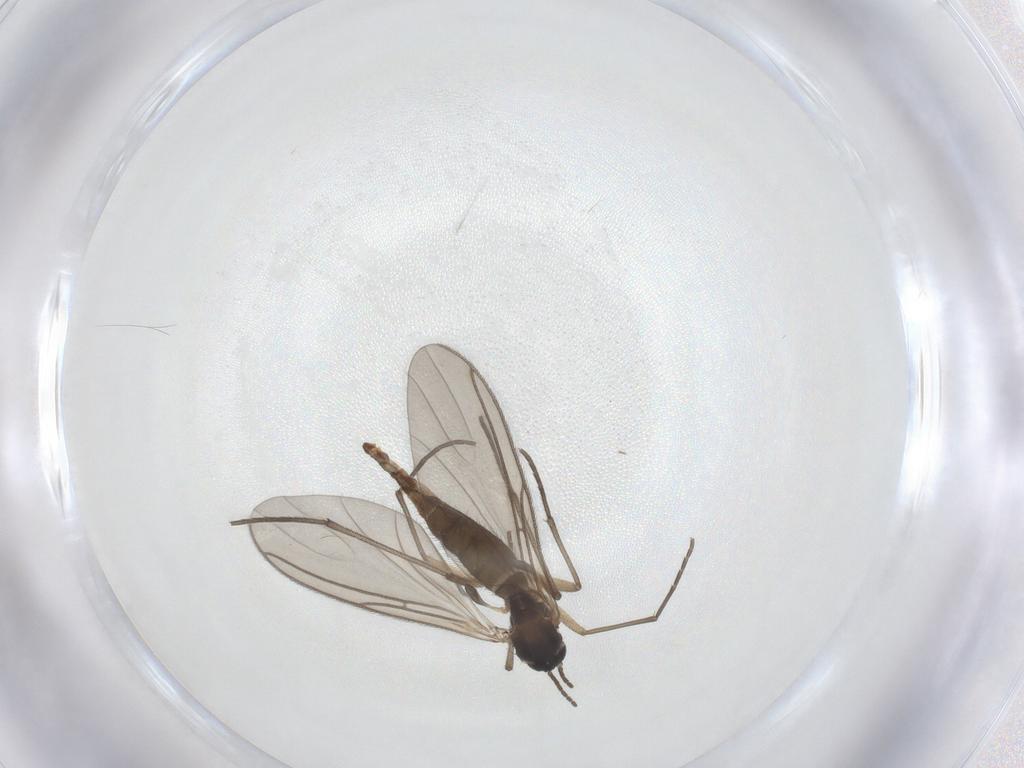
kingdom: Animalia
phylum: Arthropoda
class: Insecta
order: Diptera
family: Sciaridae
